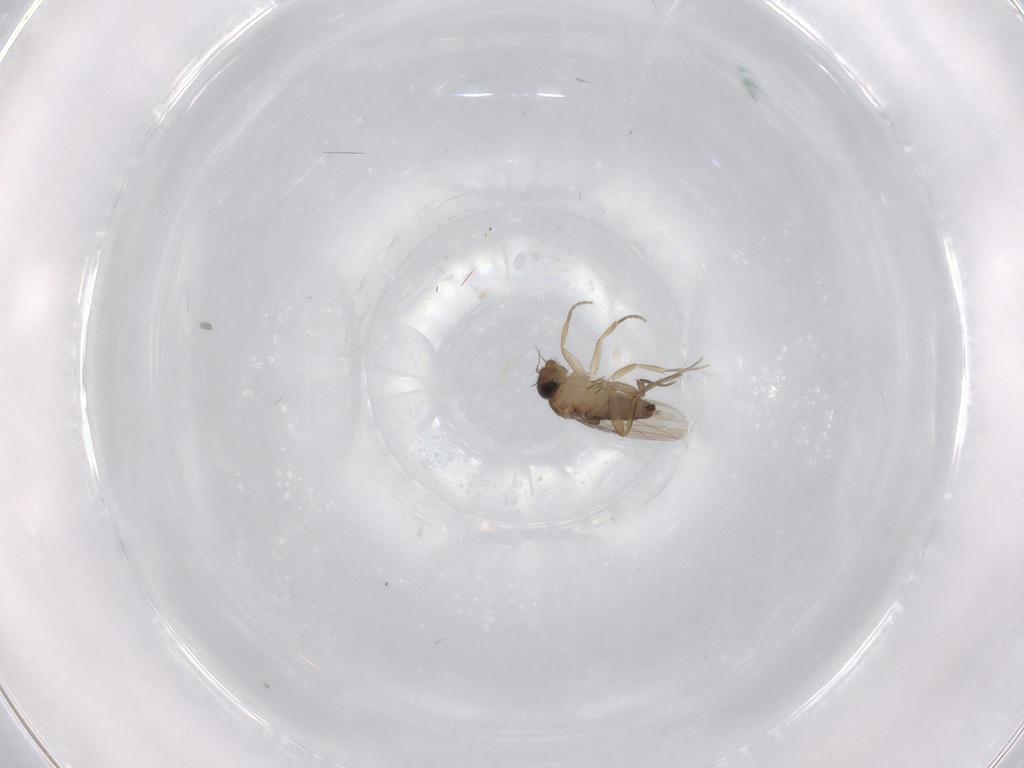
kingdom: Animalia
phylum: Arthropoda
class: Insecta
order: Diptera
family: Phoridae
